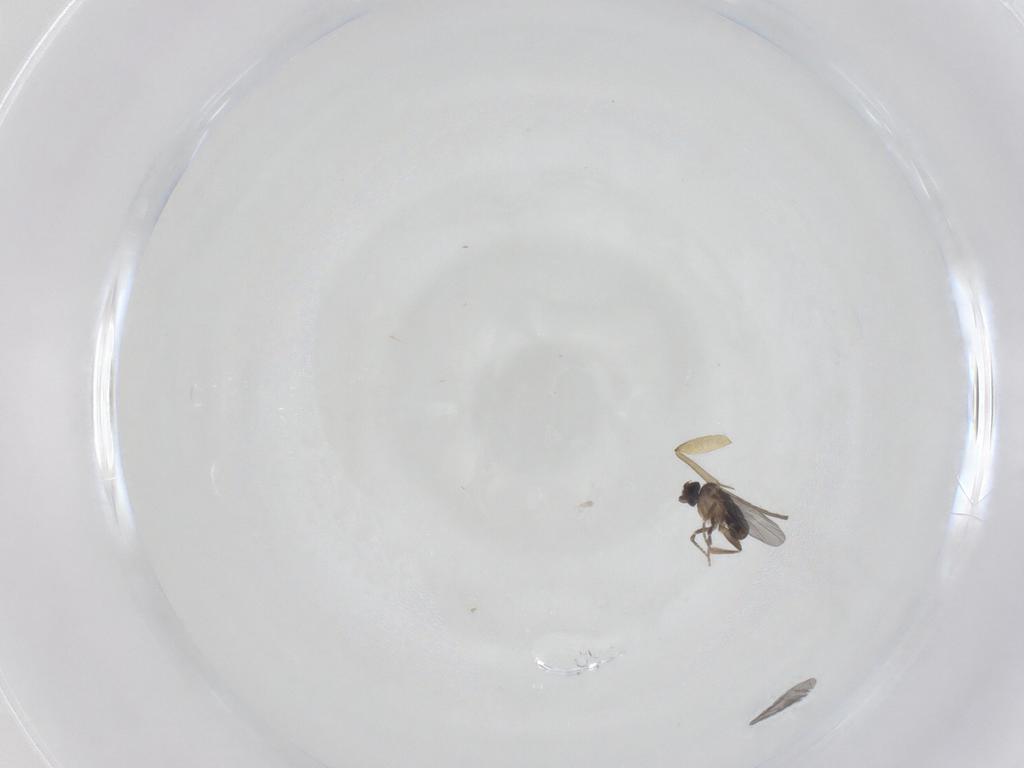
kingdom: Animalia
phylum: Arthropoda
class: Insecta
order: Diptera
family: Phoridae
